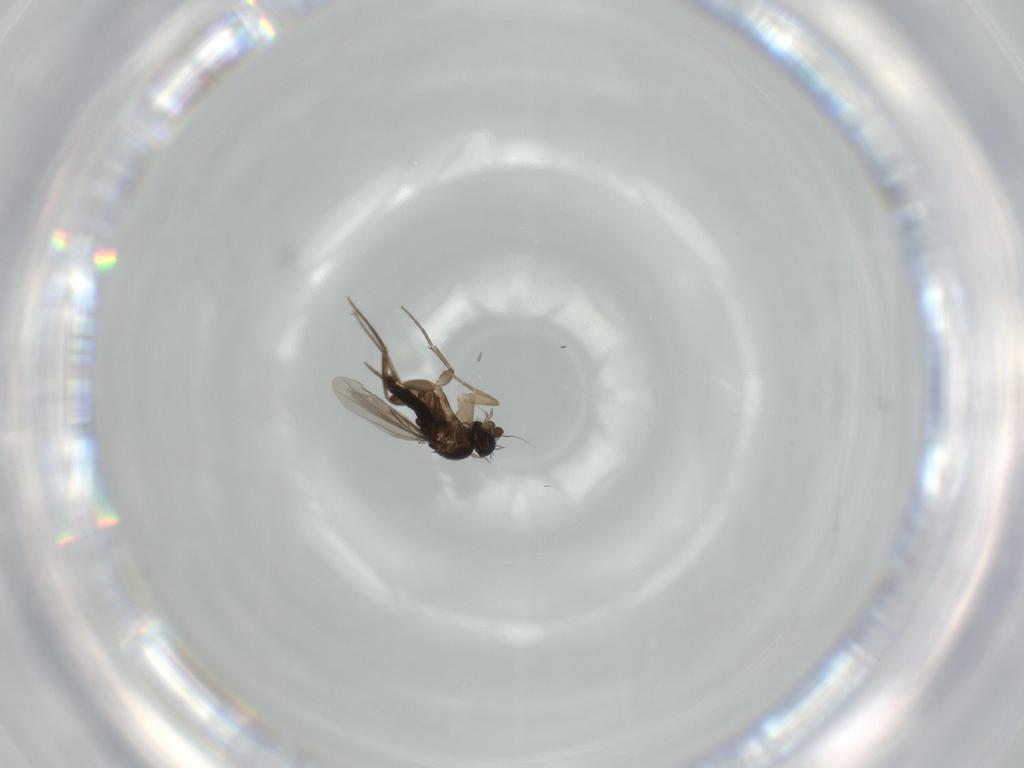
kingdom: Animalia
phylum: Arthropoda
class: Insecta
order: Diptera
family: Phoridae
